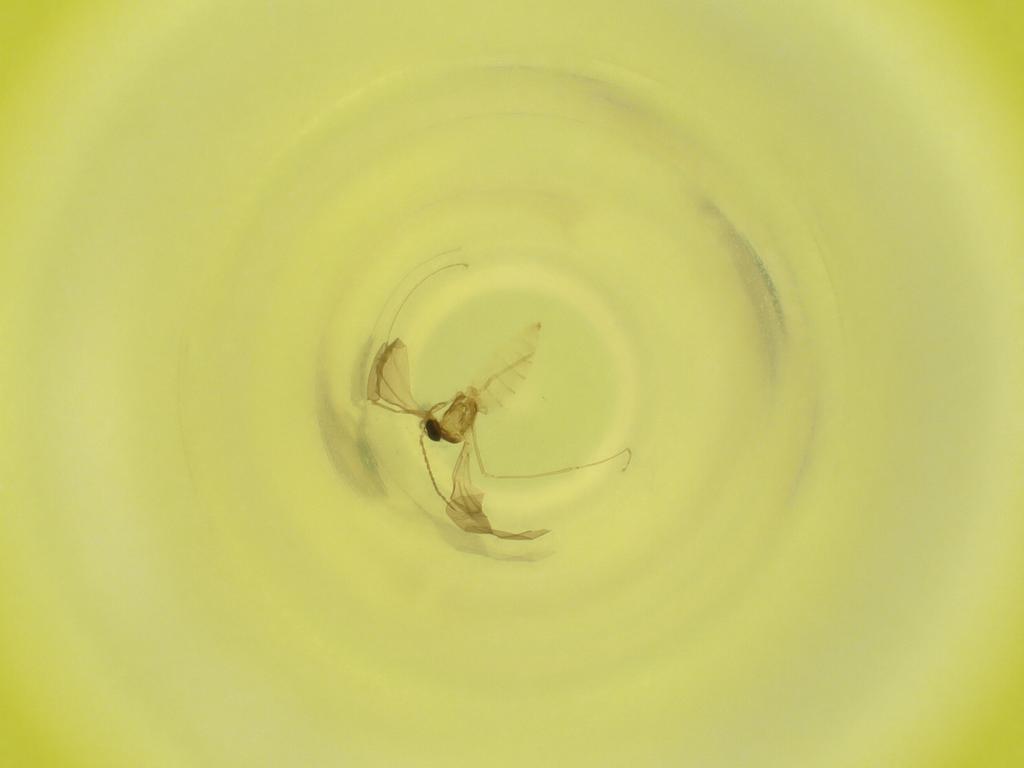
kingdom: Animalia
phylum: Arthropoda
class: Insecta
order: Diptera
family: Cecidomyiidae
